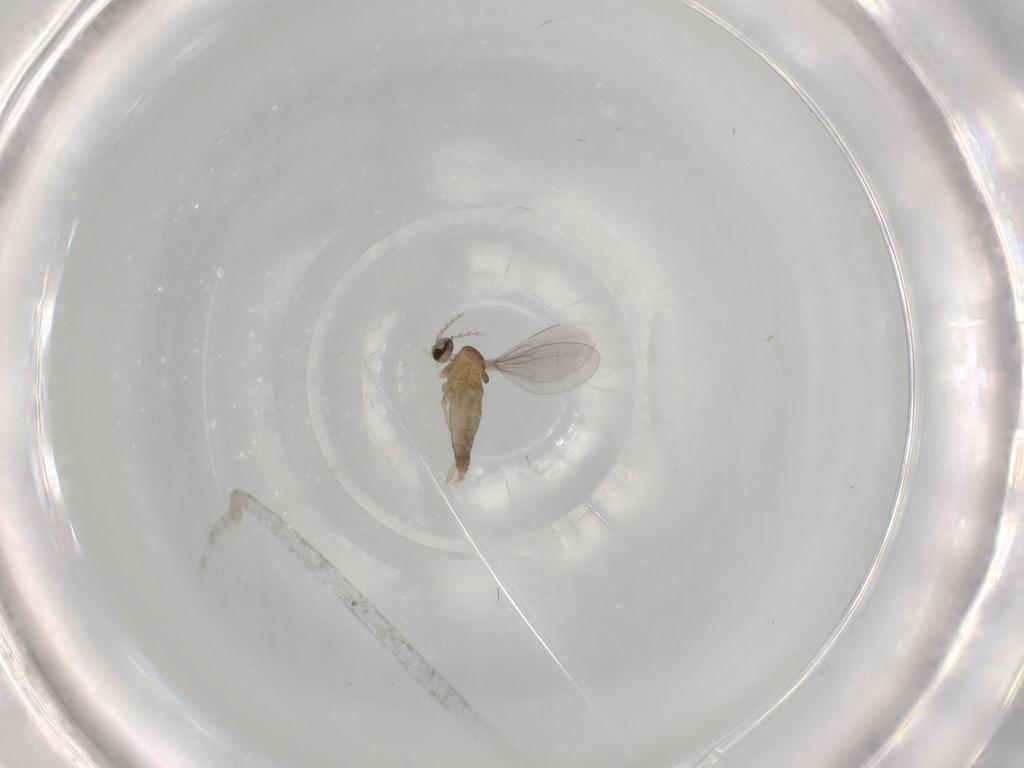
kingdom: Animalia
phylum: Arthropoda
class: Insecta
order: Diptera
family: Cecidomyiidae
